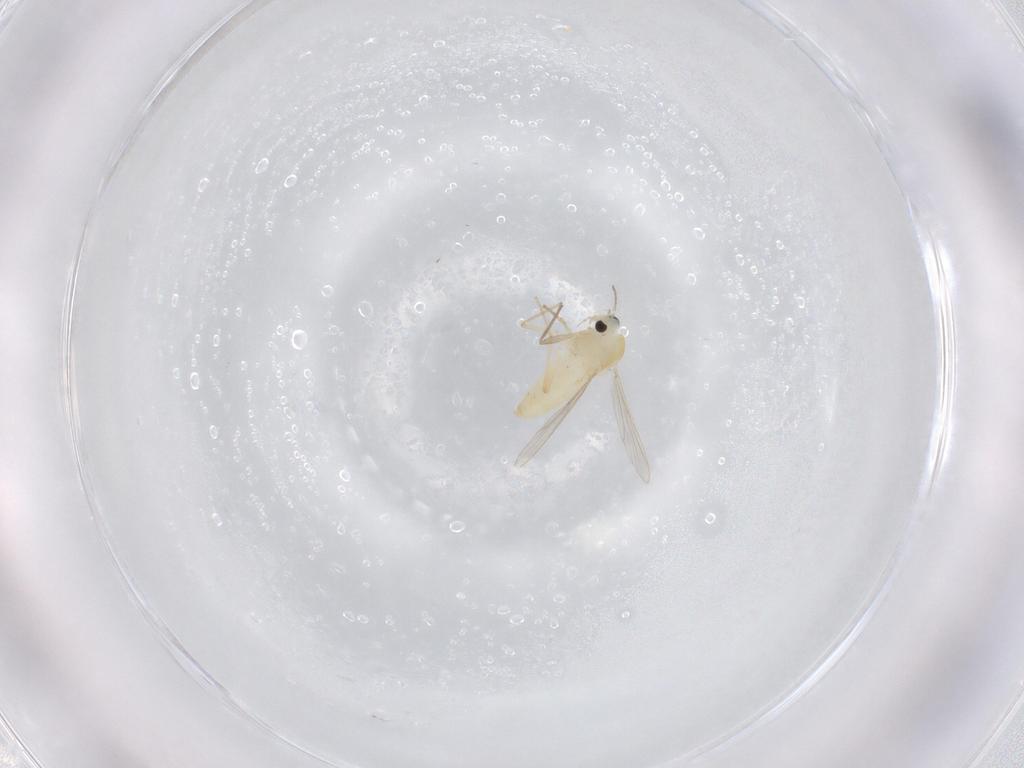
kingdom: Animalia
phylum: Arthropoda
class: Insecta
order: Diptera
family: Chironomidae
